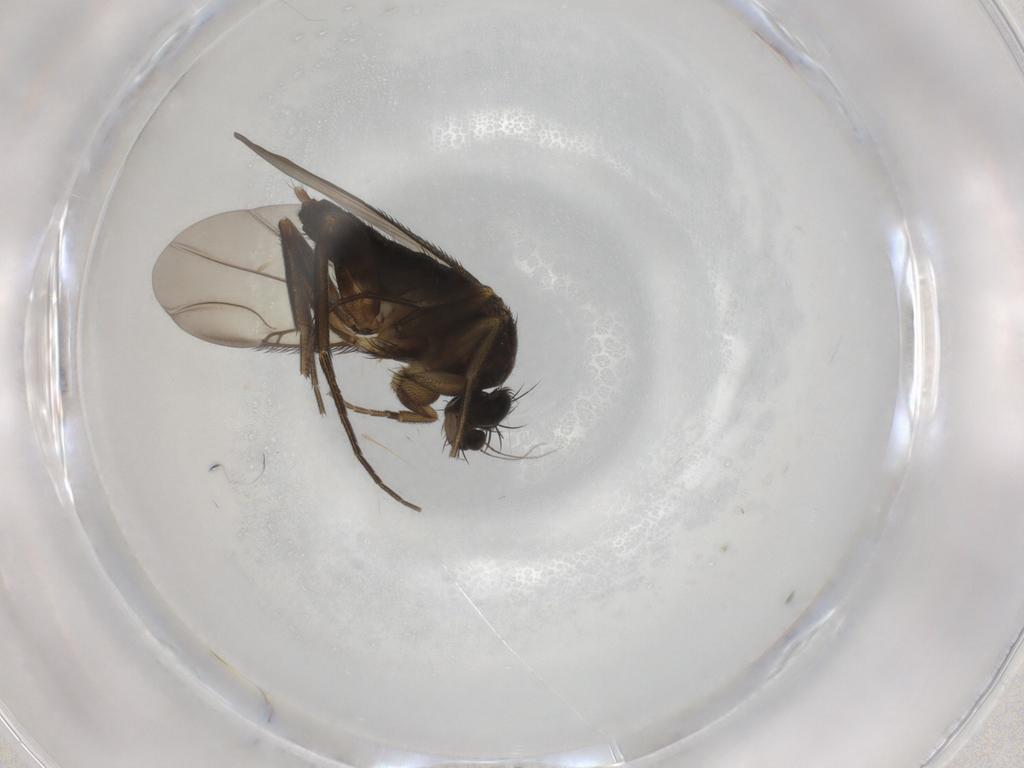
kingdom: Animalia
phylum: Arthropoda
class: Insecta
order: Diptera
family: Phoridae
